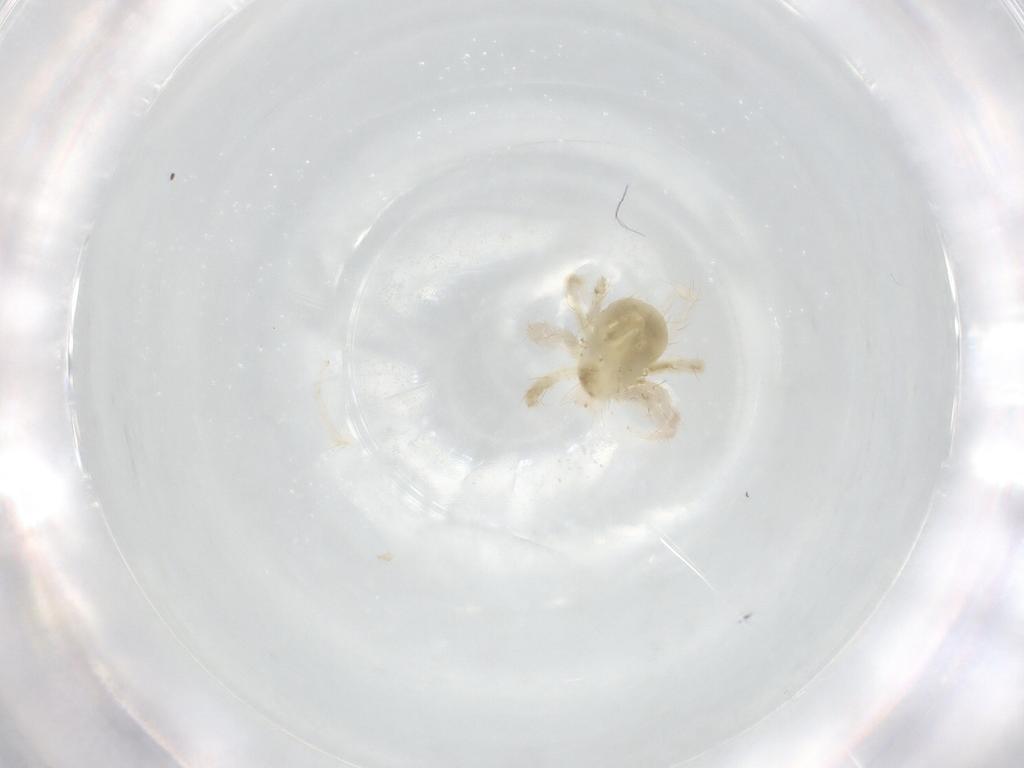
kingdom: Animalia
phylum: Arthropoda
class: Arachnida
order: Trombidiformes
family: Anystidae
